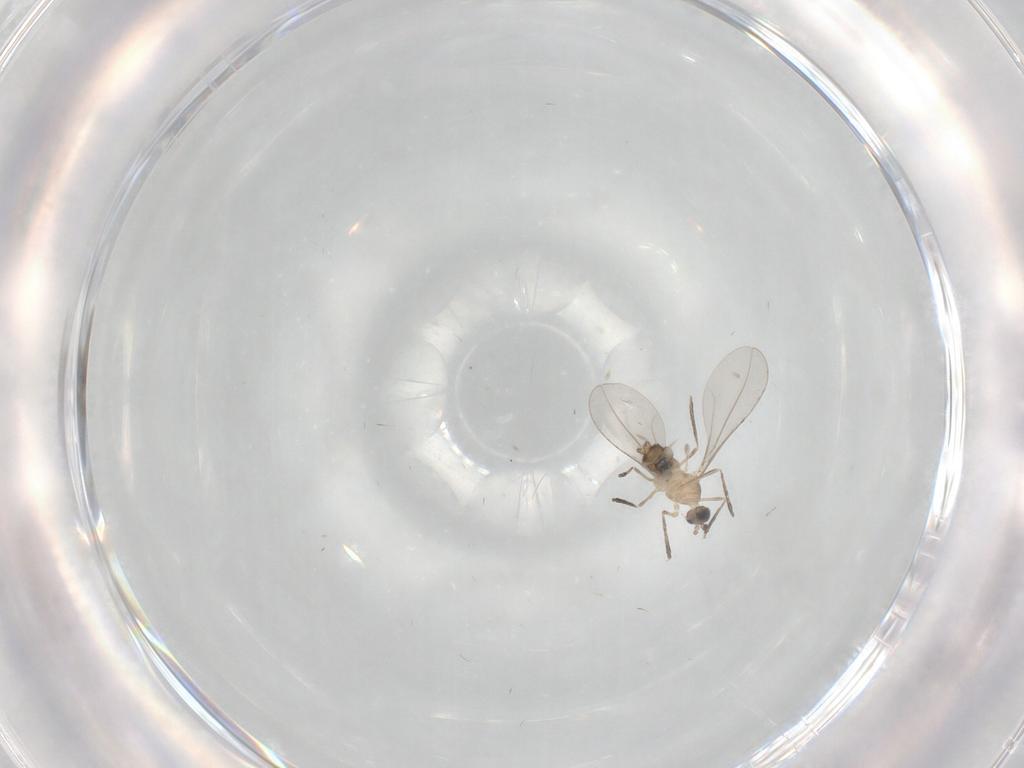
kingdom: Animalia
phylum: Arthropoda
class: Insecta
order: Diptera
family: Cecidomyiidae
